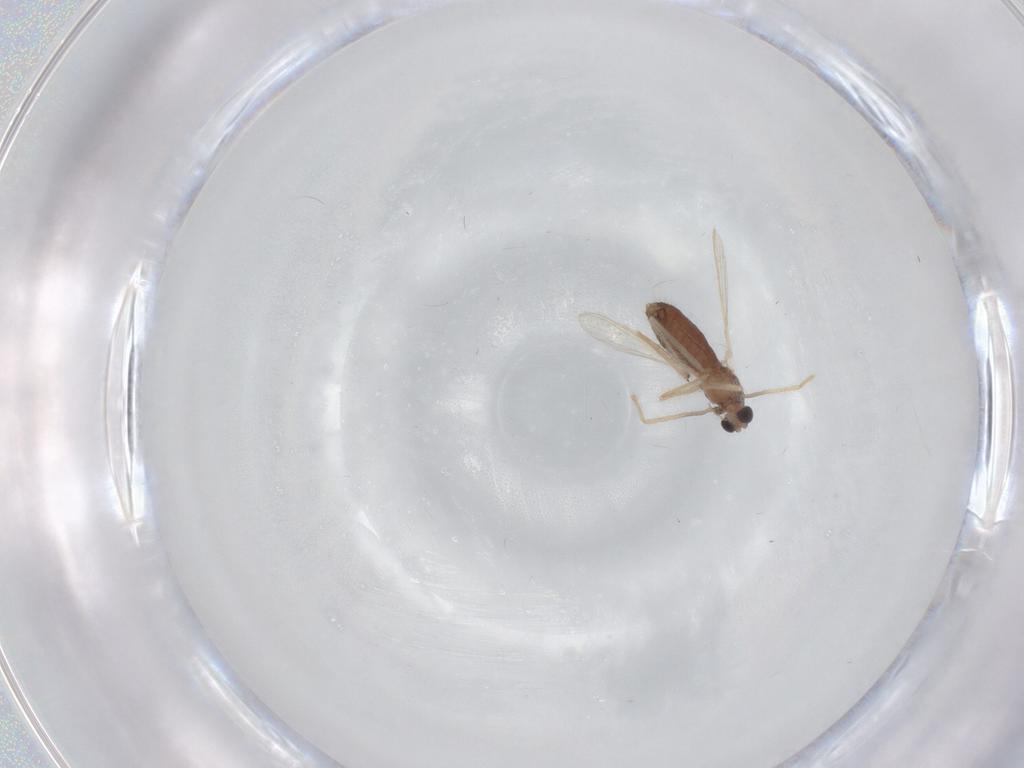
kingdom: Animalia
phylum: Arthropoda
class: Insecta
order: Diptera
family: Chironomidae
